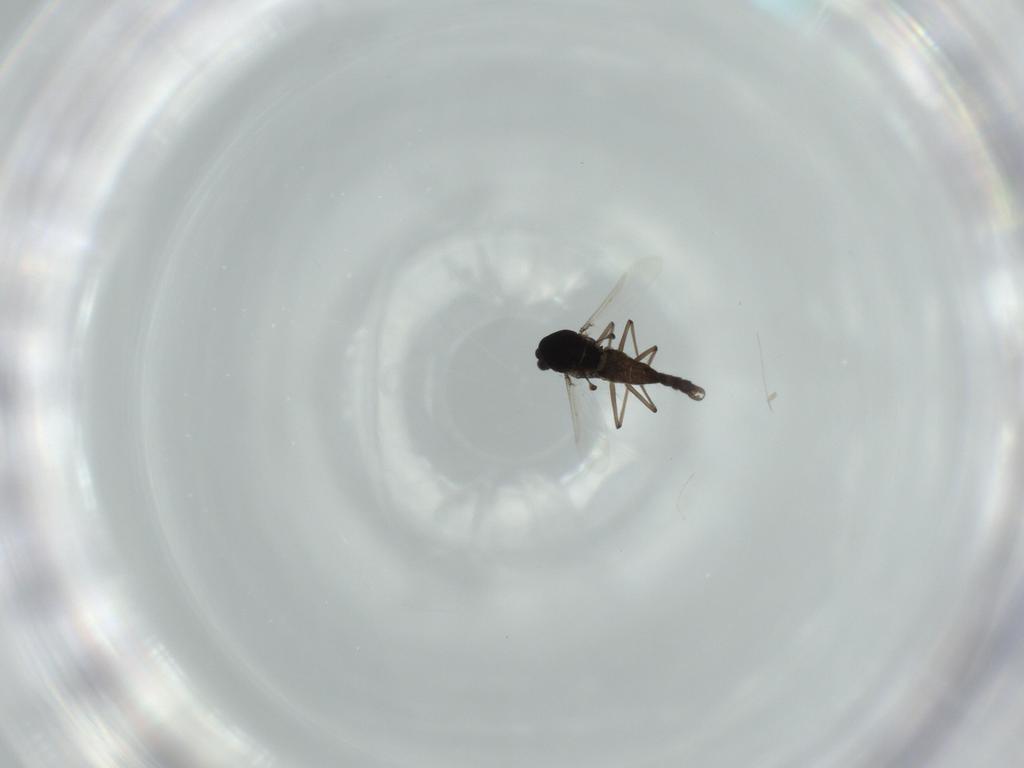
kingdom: Animalia
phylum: Arthropoda
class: Insecta
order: Diptera
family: Chironomidae
